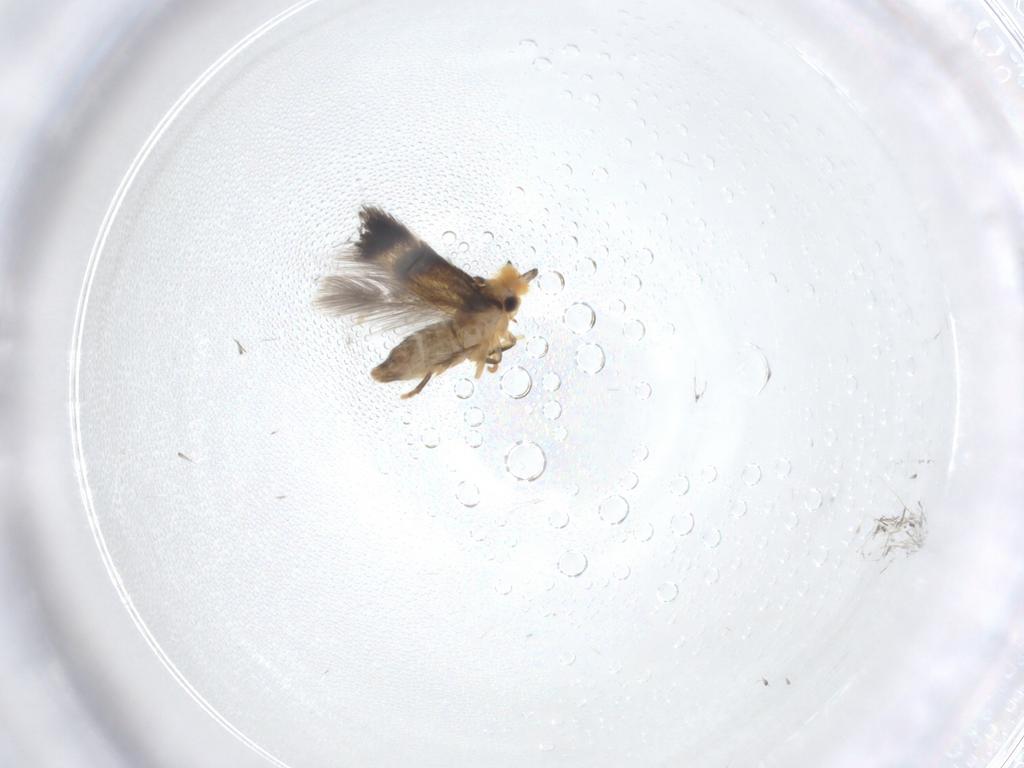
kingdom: Animalia
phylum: Arthropoda
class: Insecta
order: Lepidoptera
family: Nepticulidae
